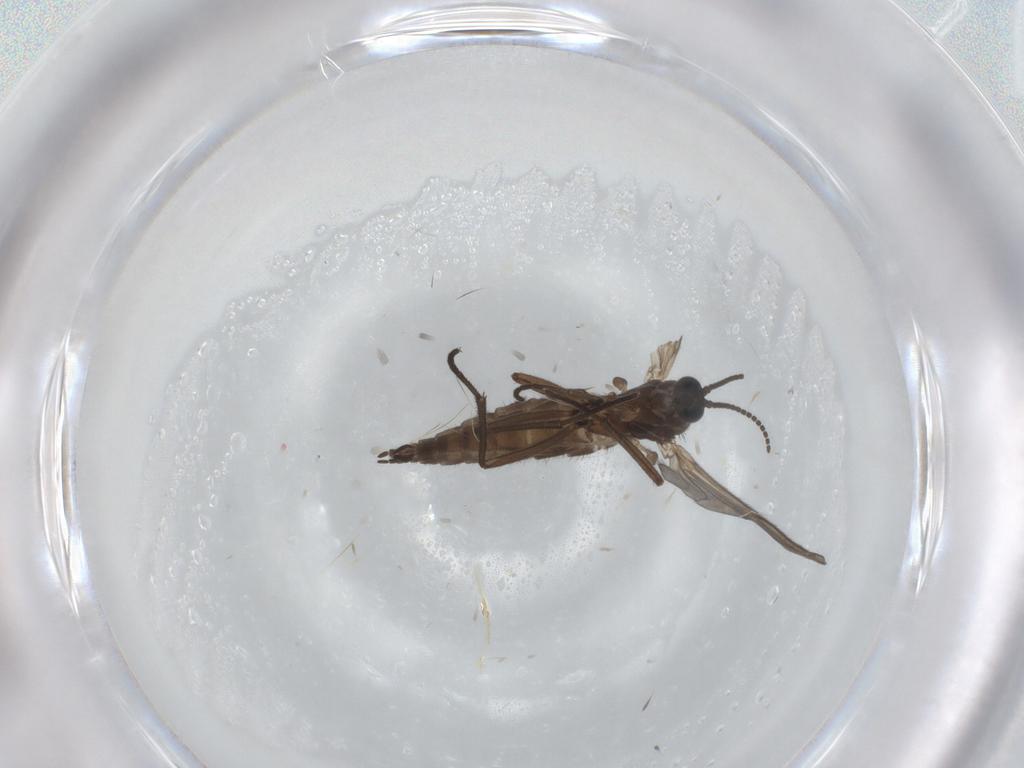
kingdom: Animalia
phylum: Arthropoda
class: Insecta
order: Diptera
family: Sciaridae
